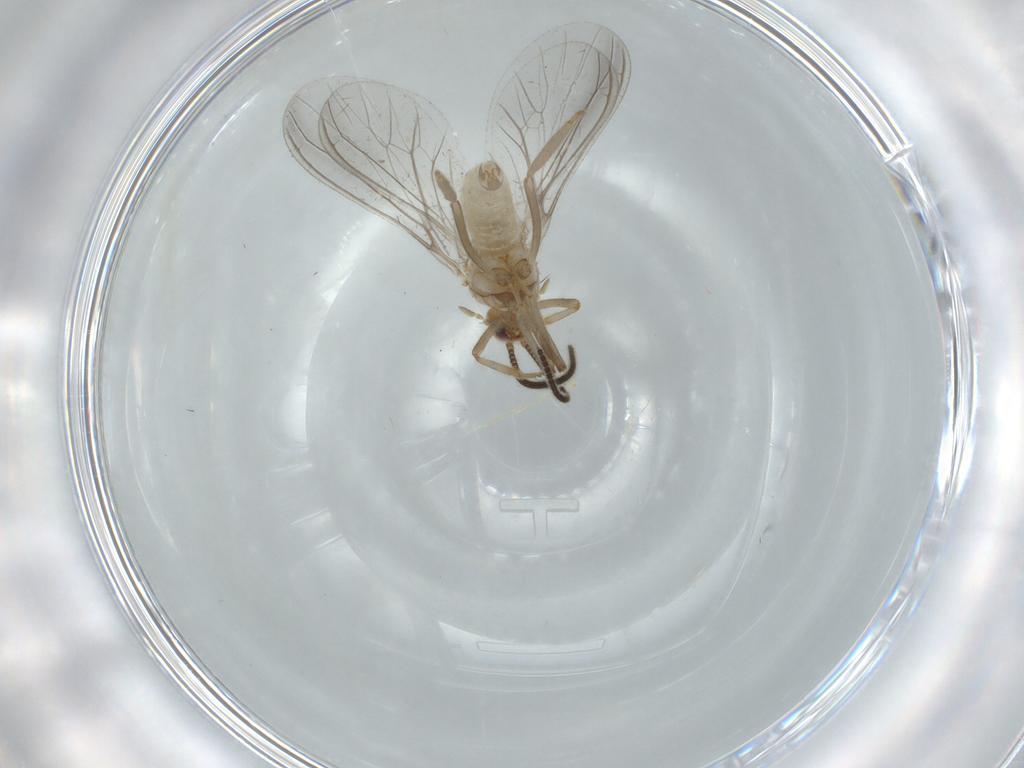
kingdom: Animalia
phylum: Arthropoda
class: Insecta
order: Neuroptera
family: Coniopterygidae
